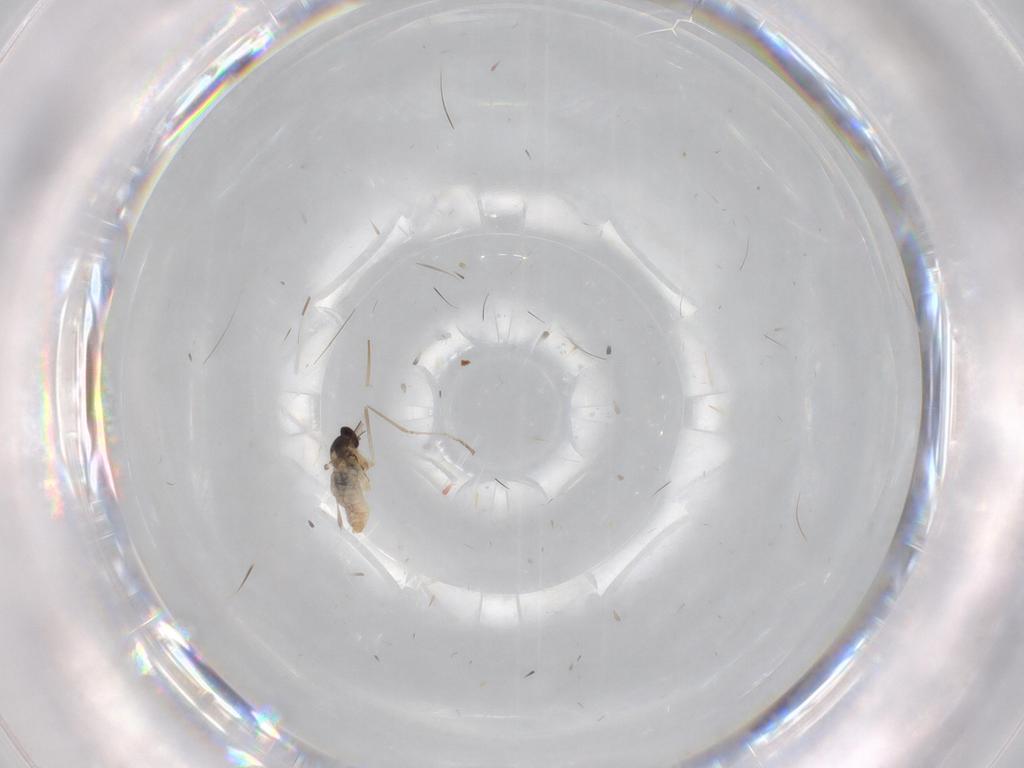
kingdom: Animalia
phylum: Arthropoda
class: Insecta
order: Diptera
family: Cecidomyiidae
